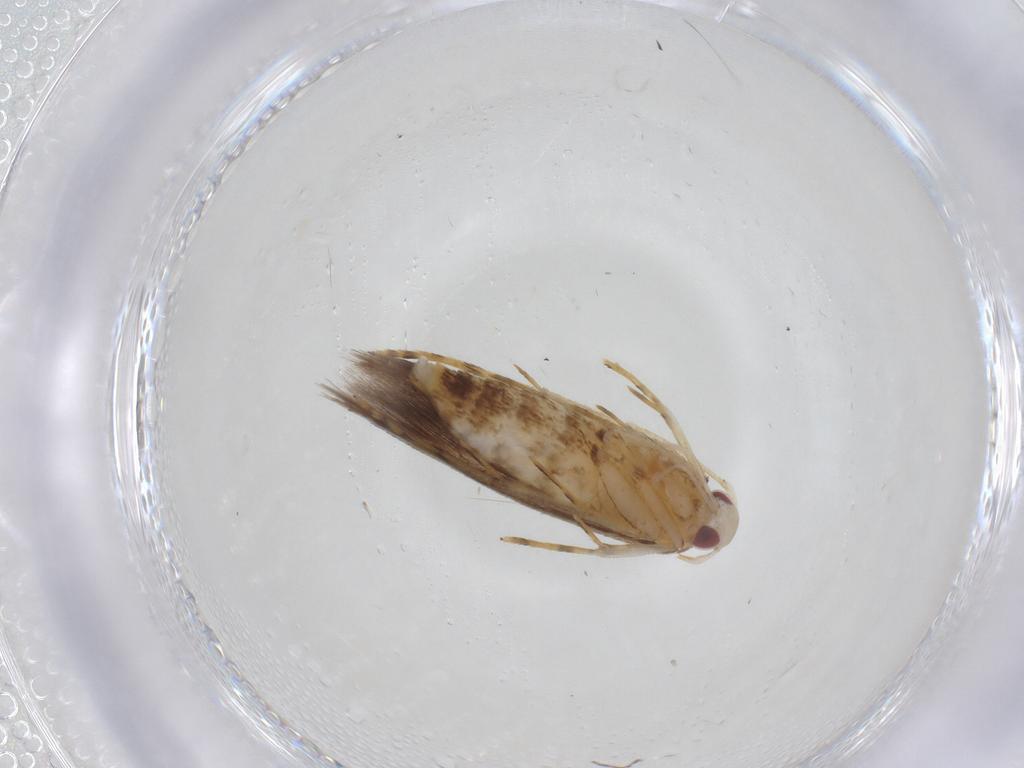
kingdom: Animalia
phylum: Arthropoda
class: Insecta
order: Lepidoptera
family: Cosmopterigidae
